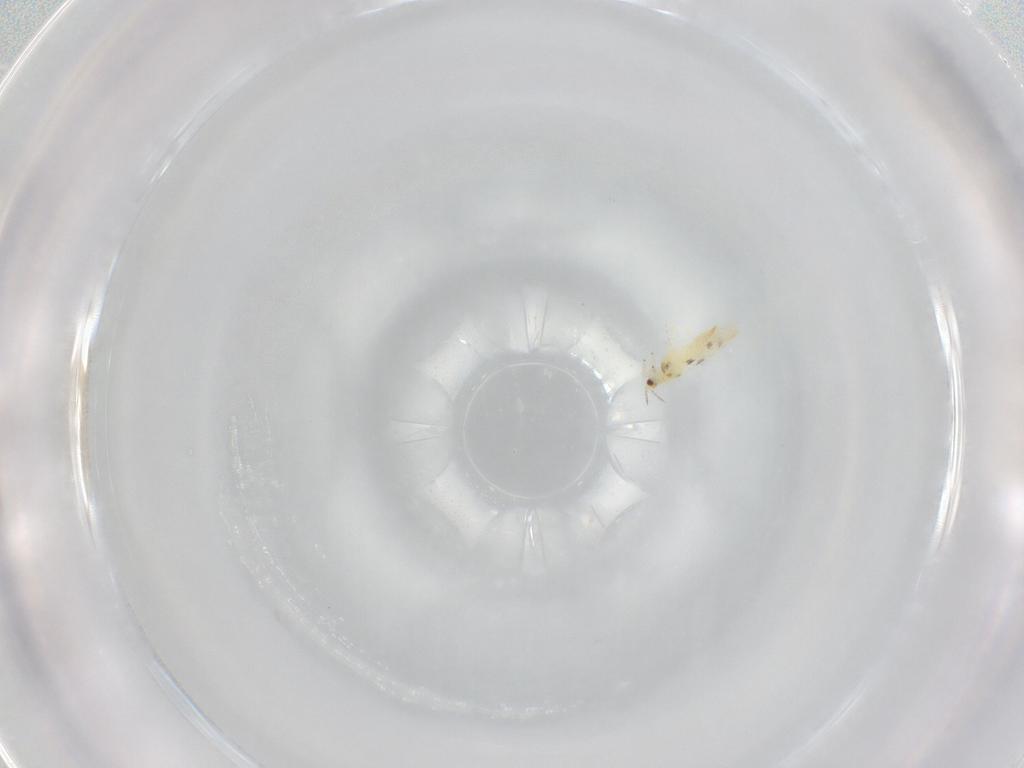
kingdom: Animalia
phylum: Arthropoda
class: Insecta
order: Thysanoptera
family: Thripidae
